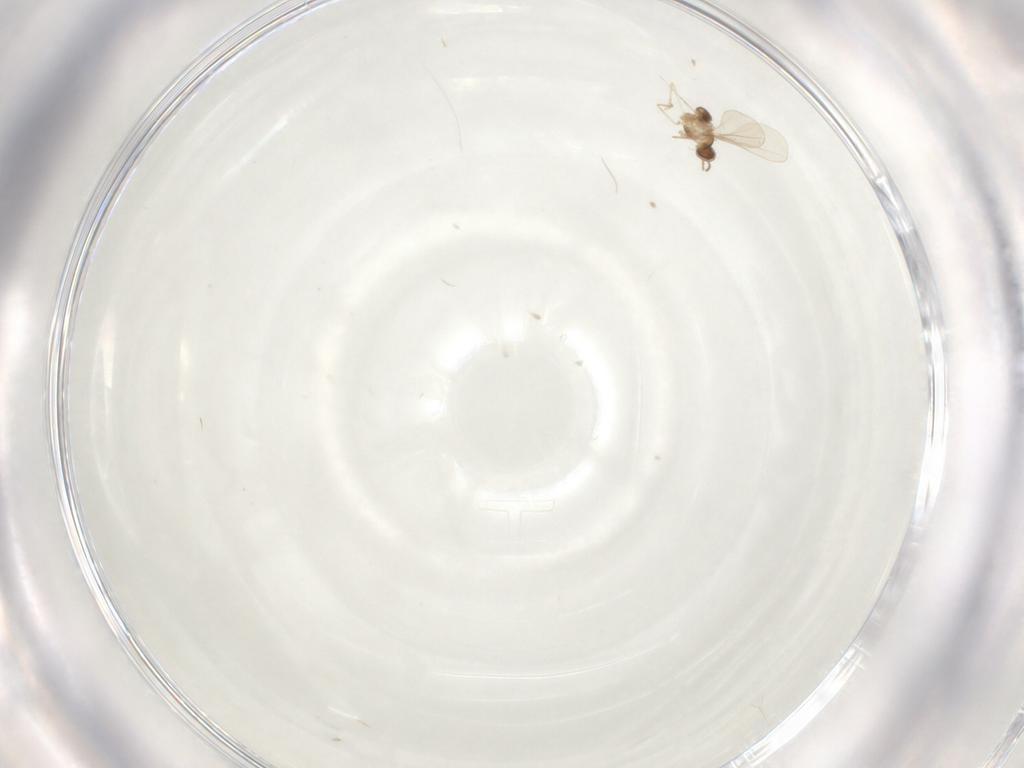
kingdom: Animalia
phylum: Arthropoda
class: Insecta
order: Diptera
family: Cecidomyiidae
